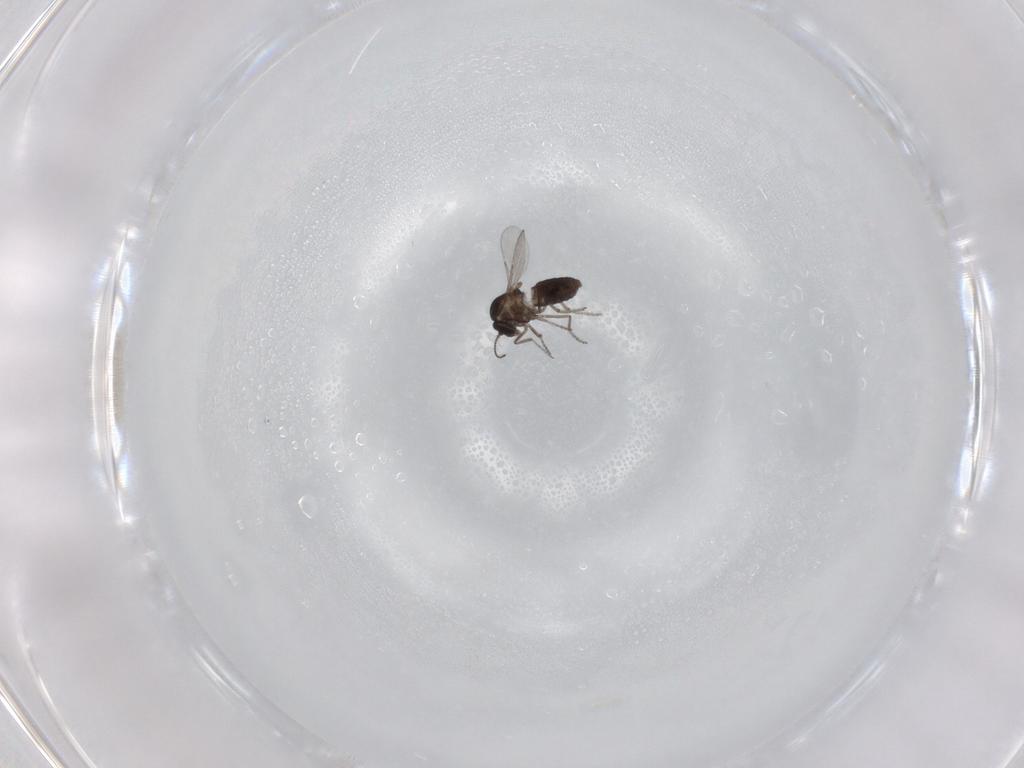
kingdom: Animalia
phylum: Arthropoda
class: Insecta
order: Diptera
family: Ceratopogonidae
